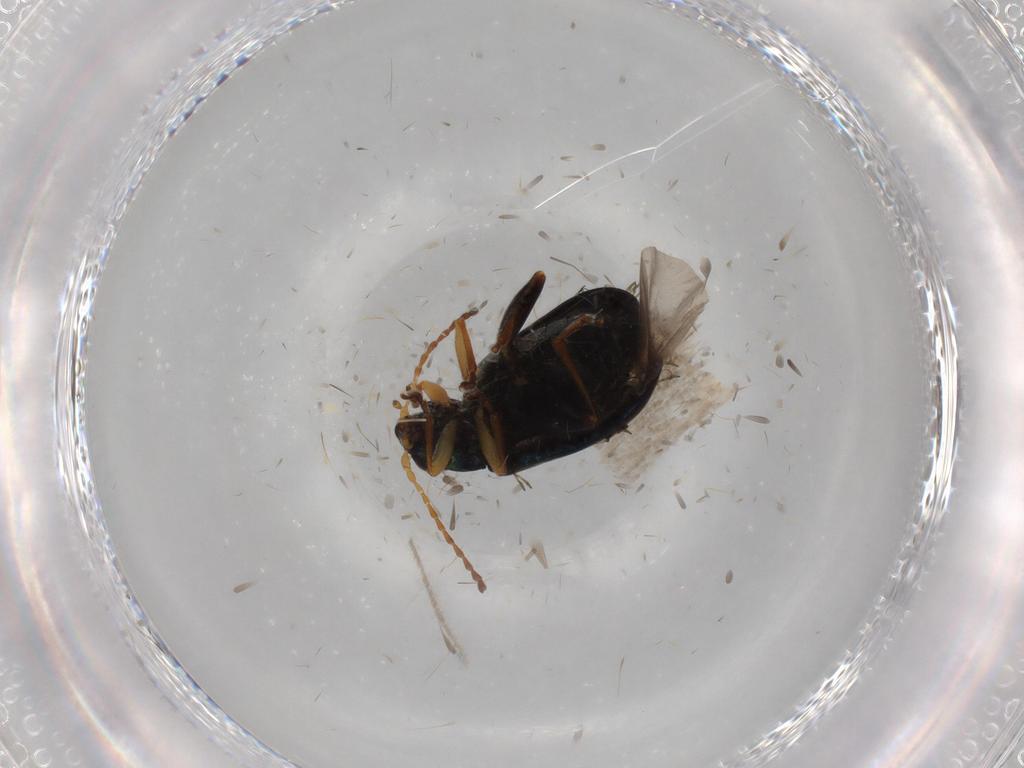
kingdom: Animalia
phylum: Arthropoda
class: Insecta
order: Coleoptera
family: Chrysomelidae
